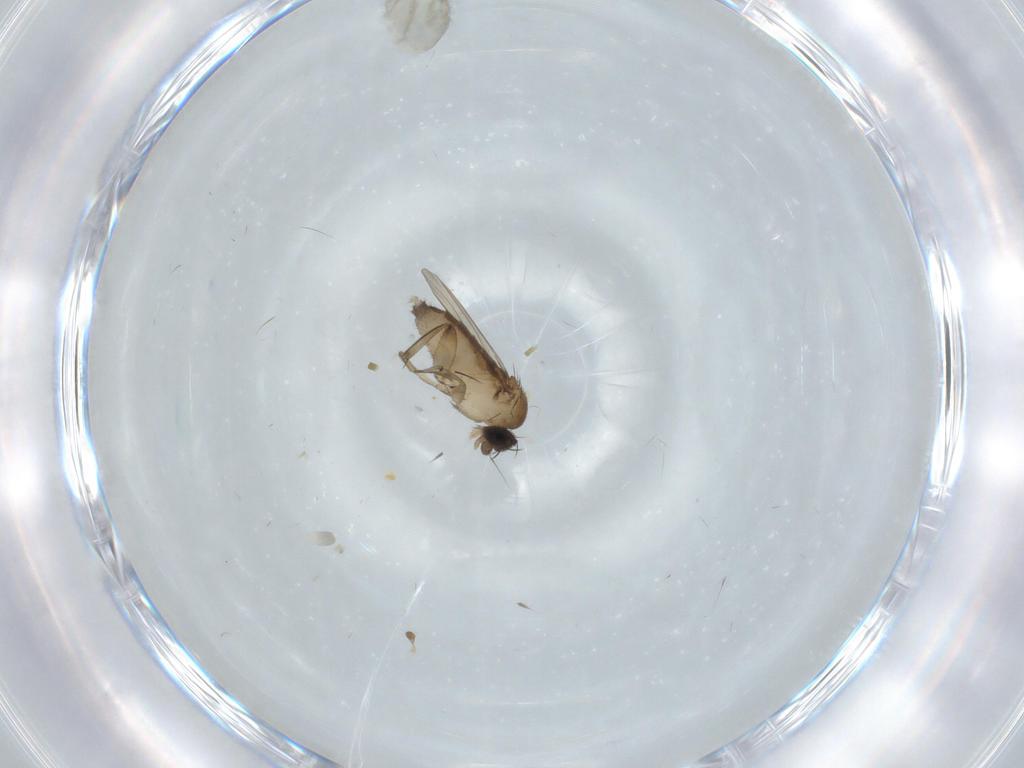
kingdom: Animalia
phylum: Arthropoda
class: Insecta
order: Diptera
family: Phoridae
